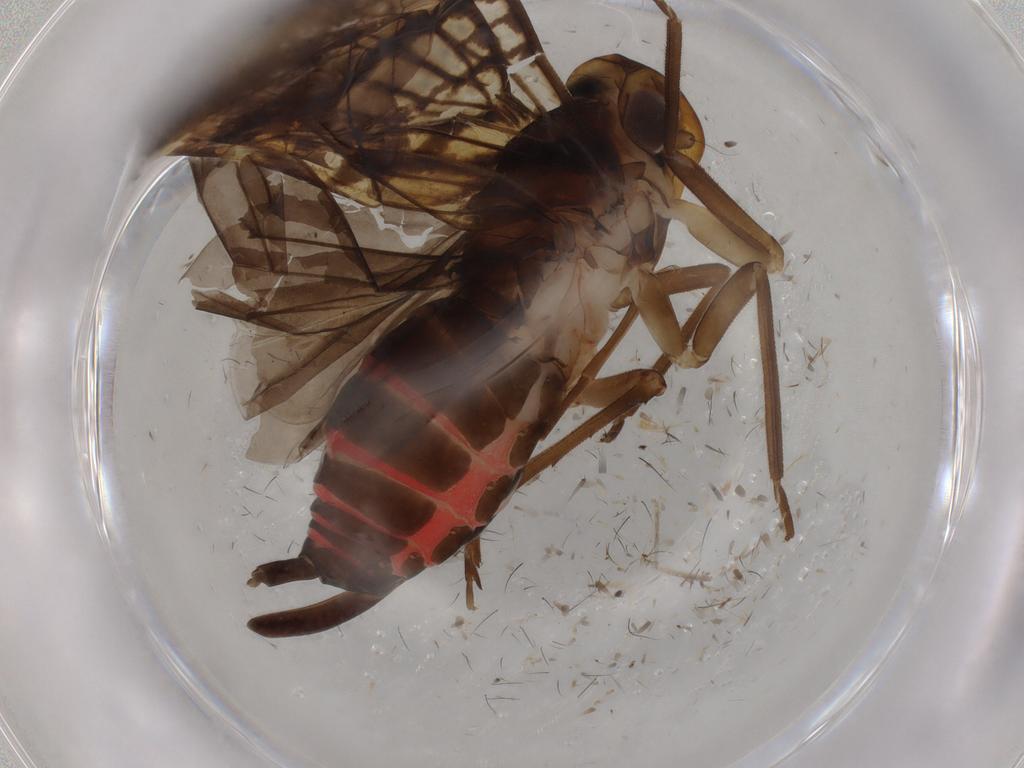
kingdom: Animalia
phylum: Arthropoda
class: Insecta
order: Hemiptera
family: Cixiidae
